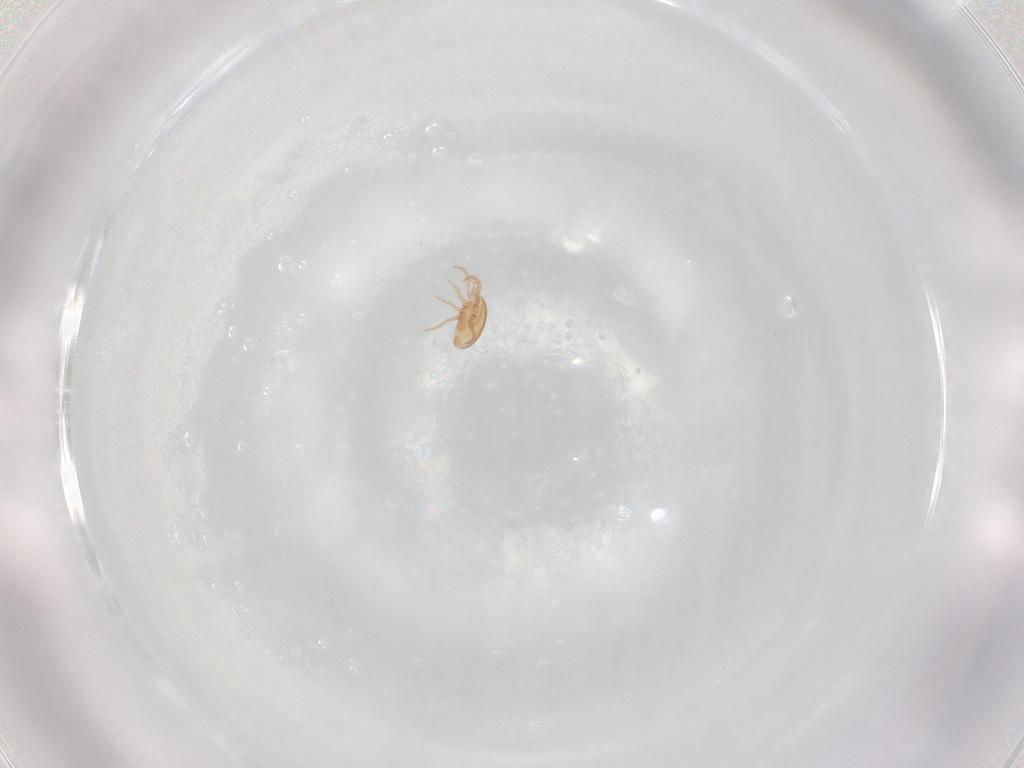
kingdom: Animalia
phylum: Arthropoda
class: Arachnida
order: Mesostigmata
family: Melicharidae
